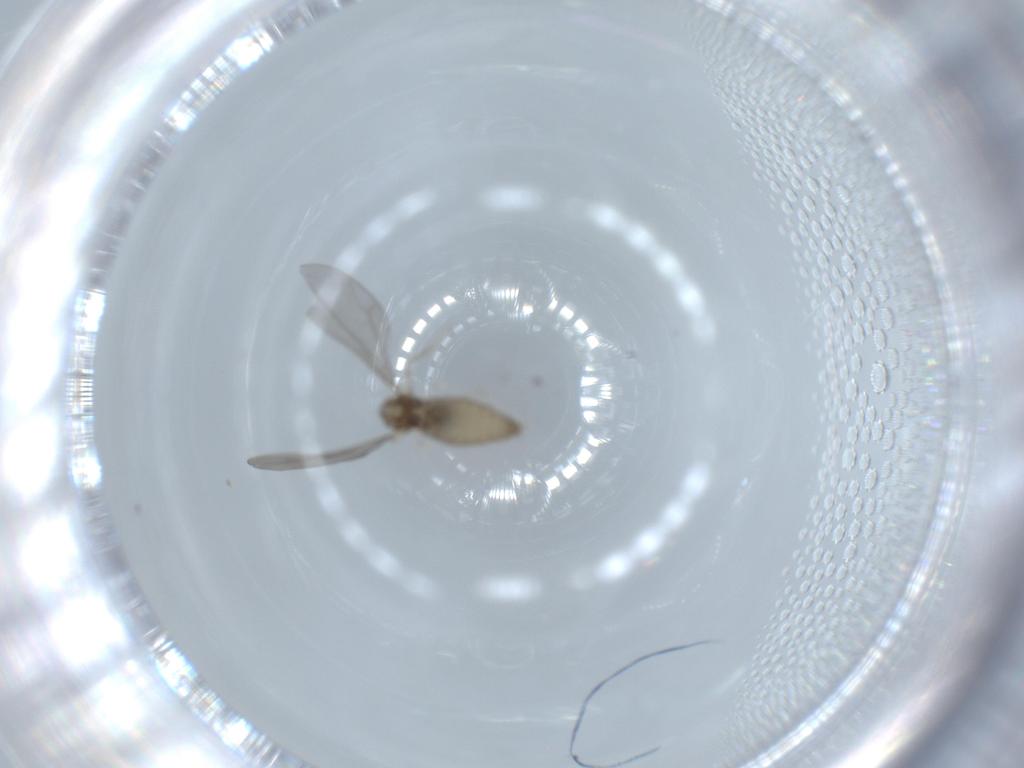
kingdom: Animalia
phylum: Arthropoda
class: Insecta
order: Diptera
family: Cecidomyiidae
